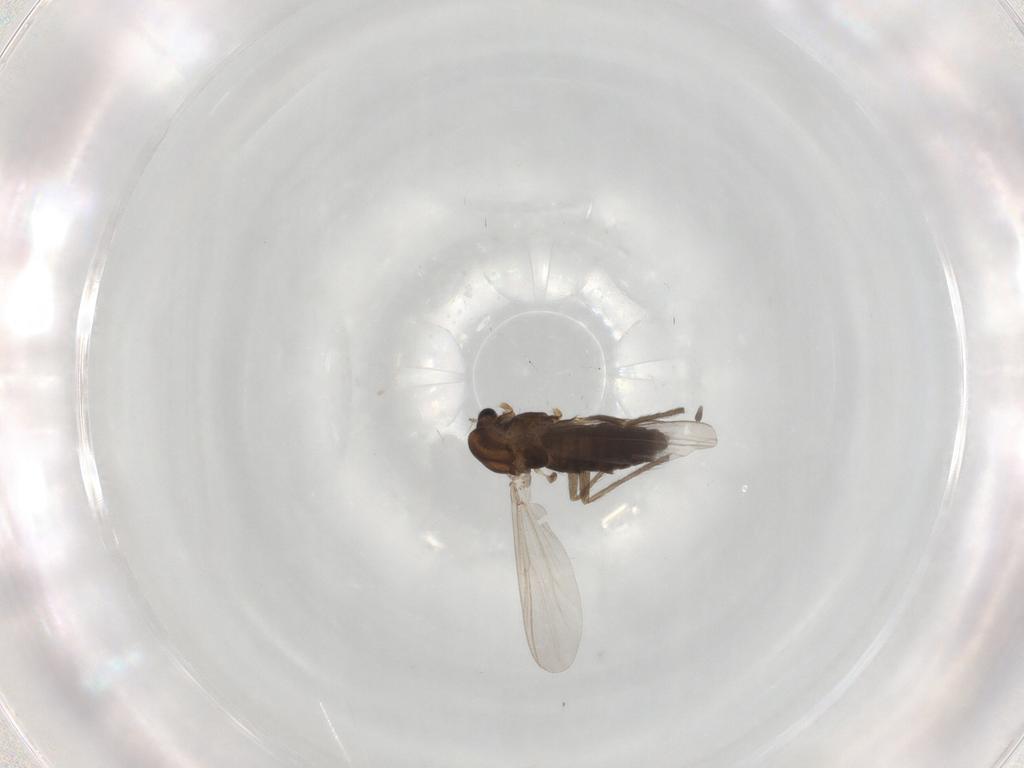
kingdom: Animalia
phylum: Arthropoda
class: Insecta
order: Diptera
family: Chironomidae
